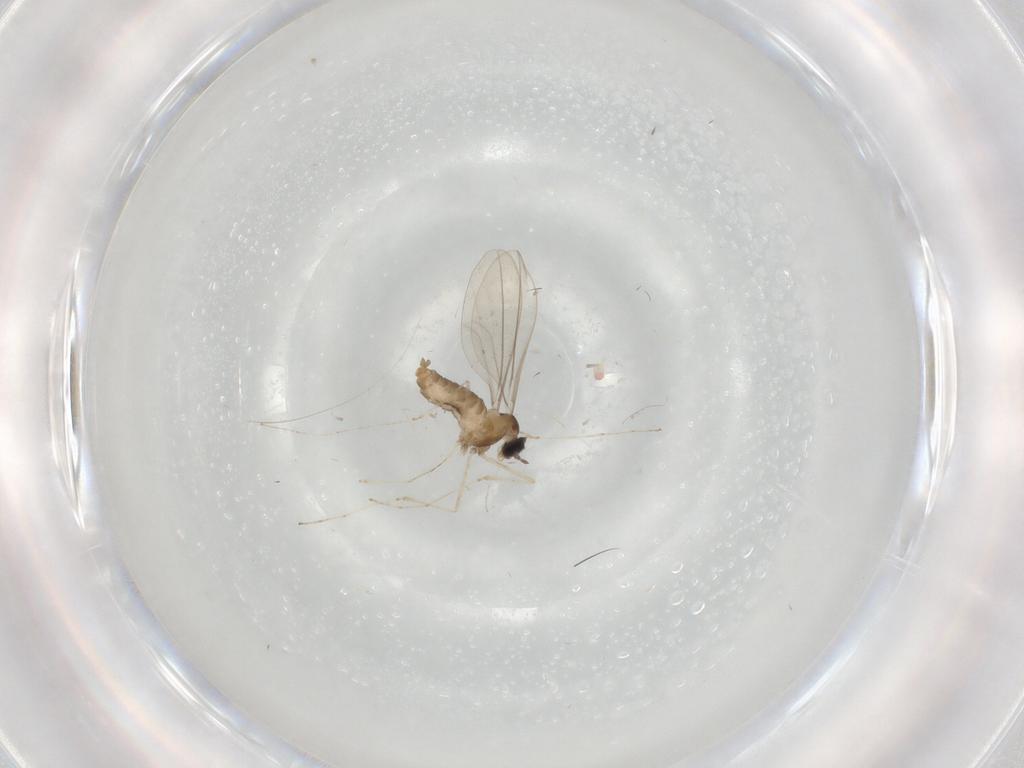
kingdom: Animalia
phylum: Arthropoda
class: Insecta
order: Diptera
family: Cecidomyiidae
